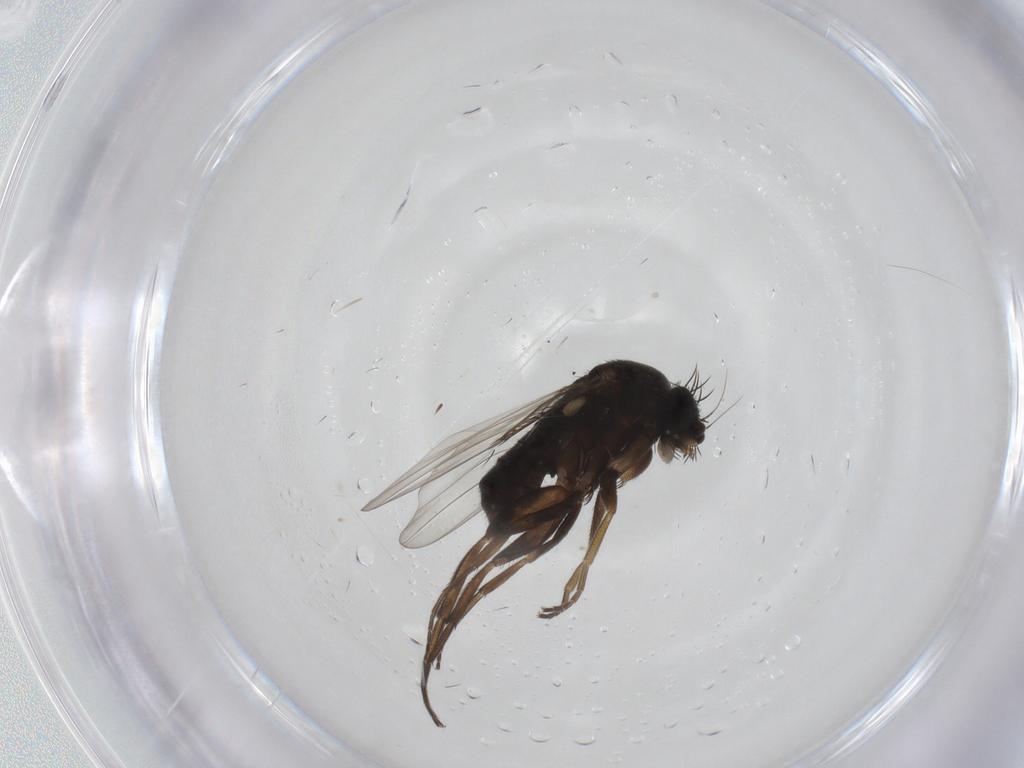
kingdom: Animalia
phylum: Arthropoda
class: Insecta
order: Diptera
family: Phoridae
